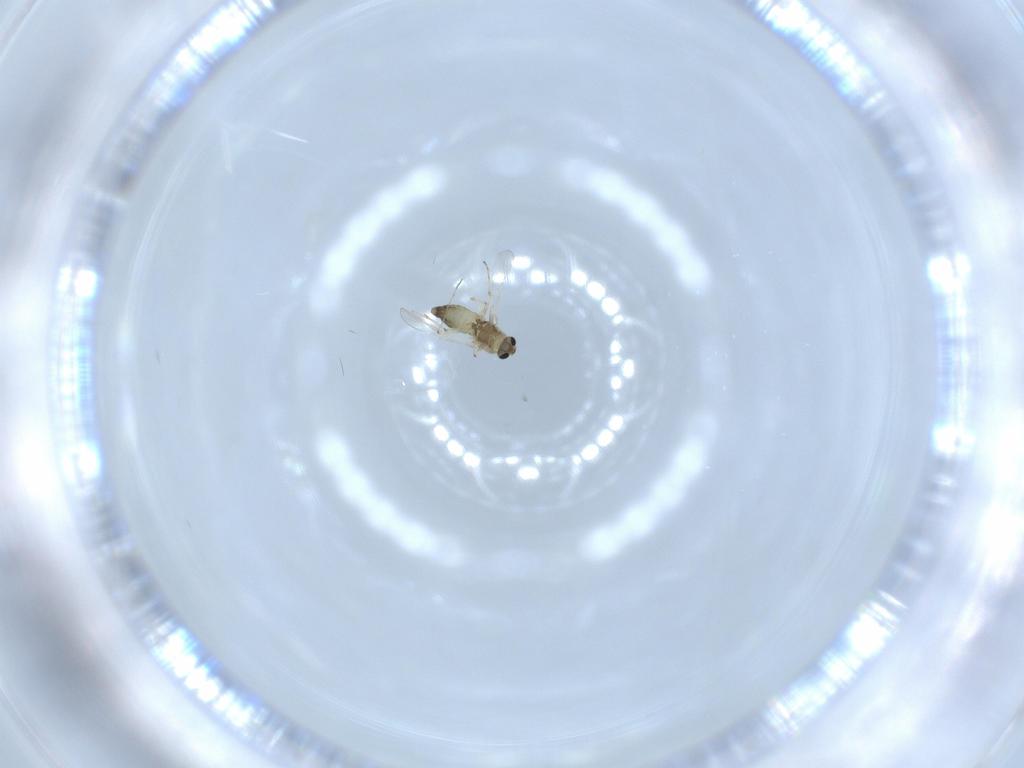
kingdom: Animalia
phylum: Arthropoda
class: Insecta
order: Diptera
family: Chironomidae
